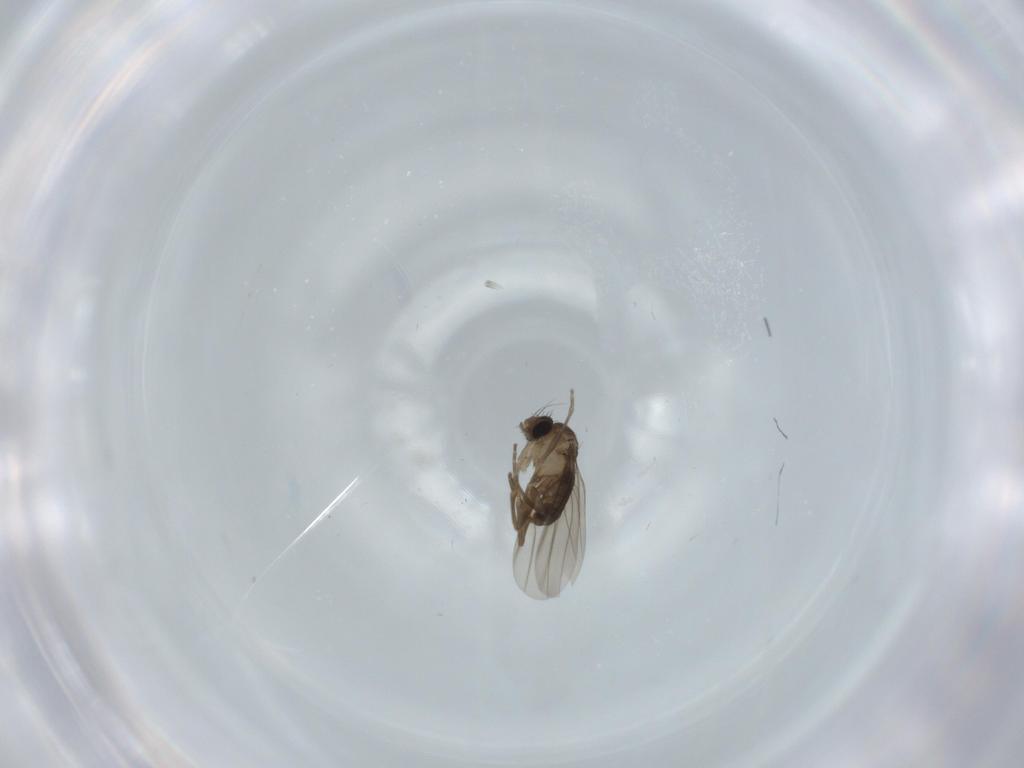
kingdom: Animalia
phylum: Arthropoda
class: Insecta
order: Diptera
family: Phoridae
